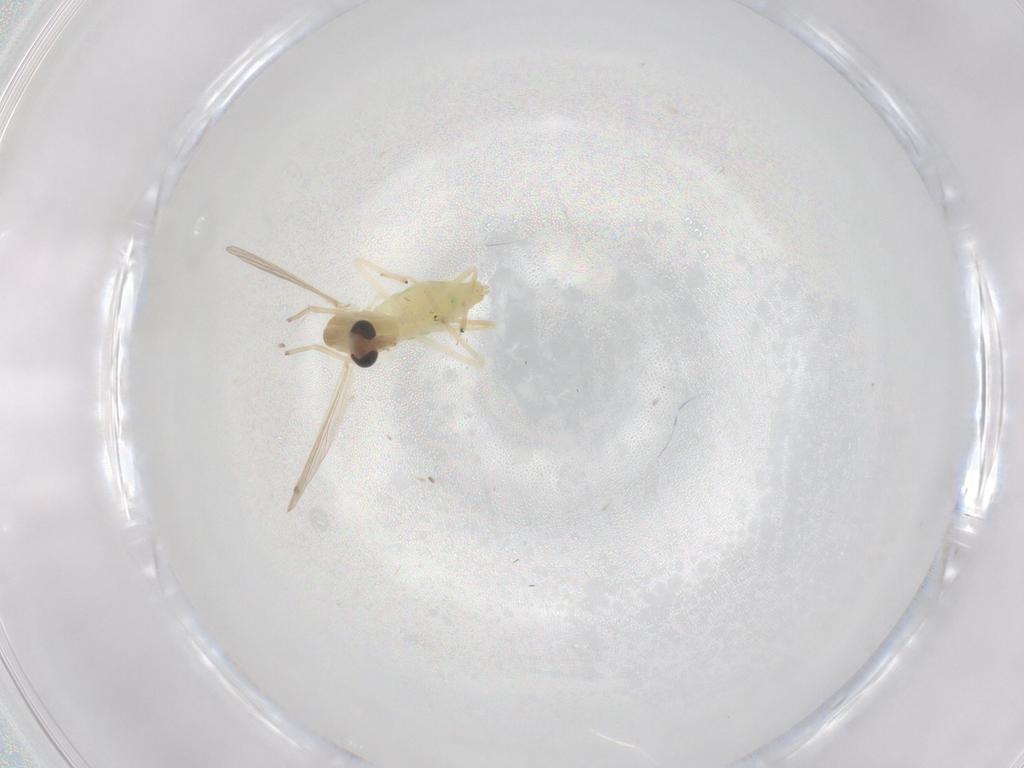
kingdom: Animalia
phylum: Arthropoda
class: Insecta
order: Diptera
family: Chironomidae
